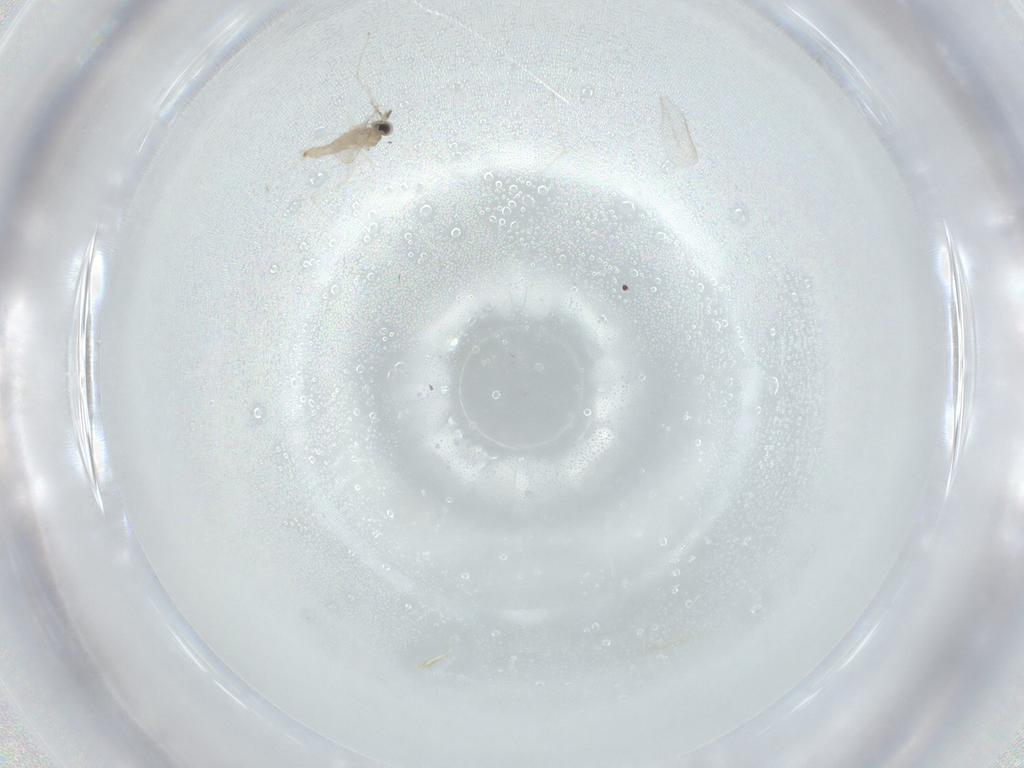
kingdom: Animalia
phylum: Arthropoda
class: Insecta
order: Diptera
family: Cecidomyiidae
